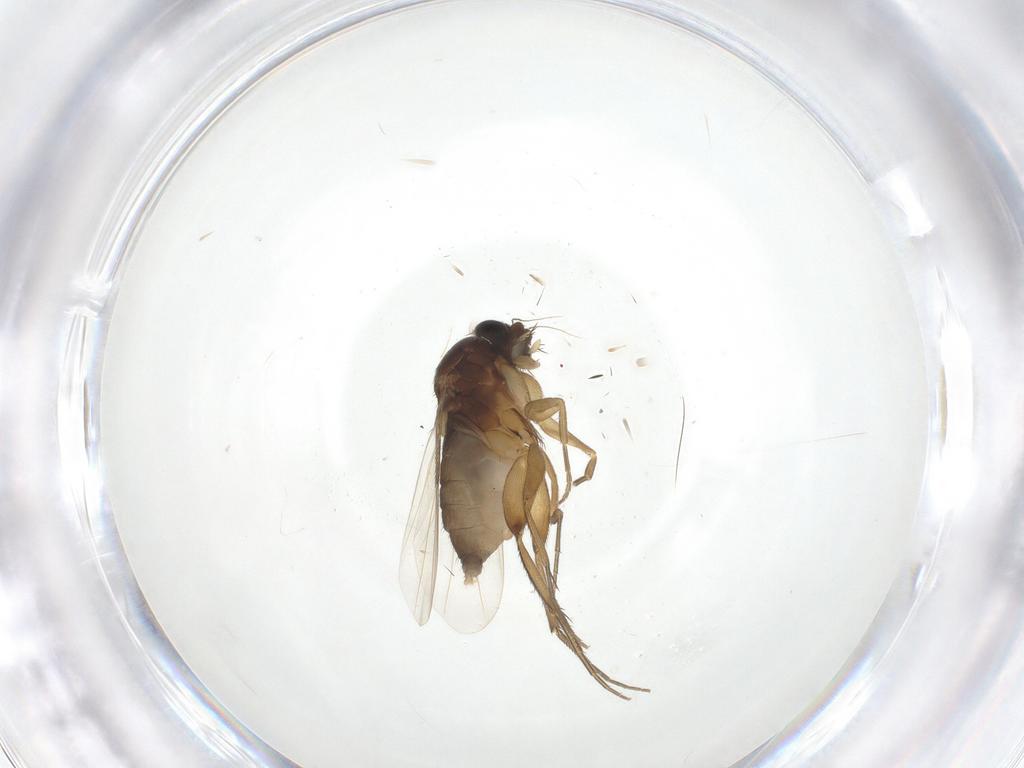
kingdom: Animalia
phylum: Arthropoda
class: Insecta
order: Diptera
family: Phoridae
